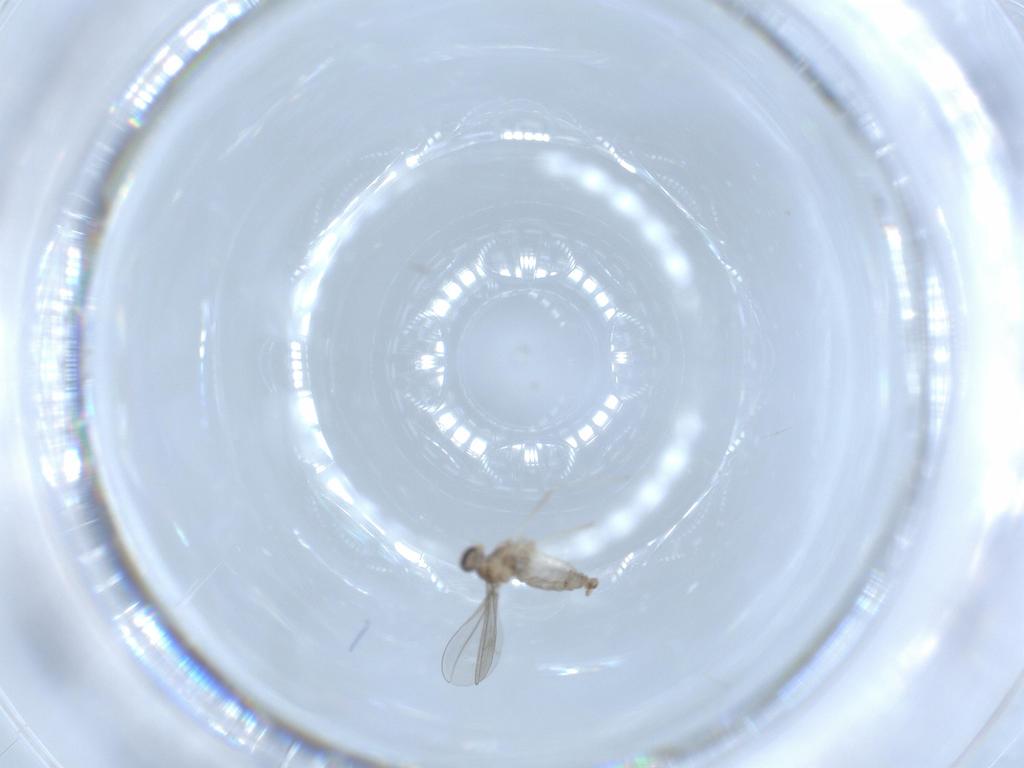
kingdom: Animalia
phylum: Arthropoda
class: Insecta
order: Diptera
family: Cecidomyiidae
